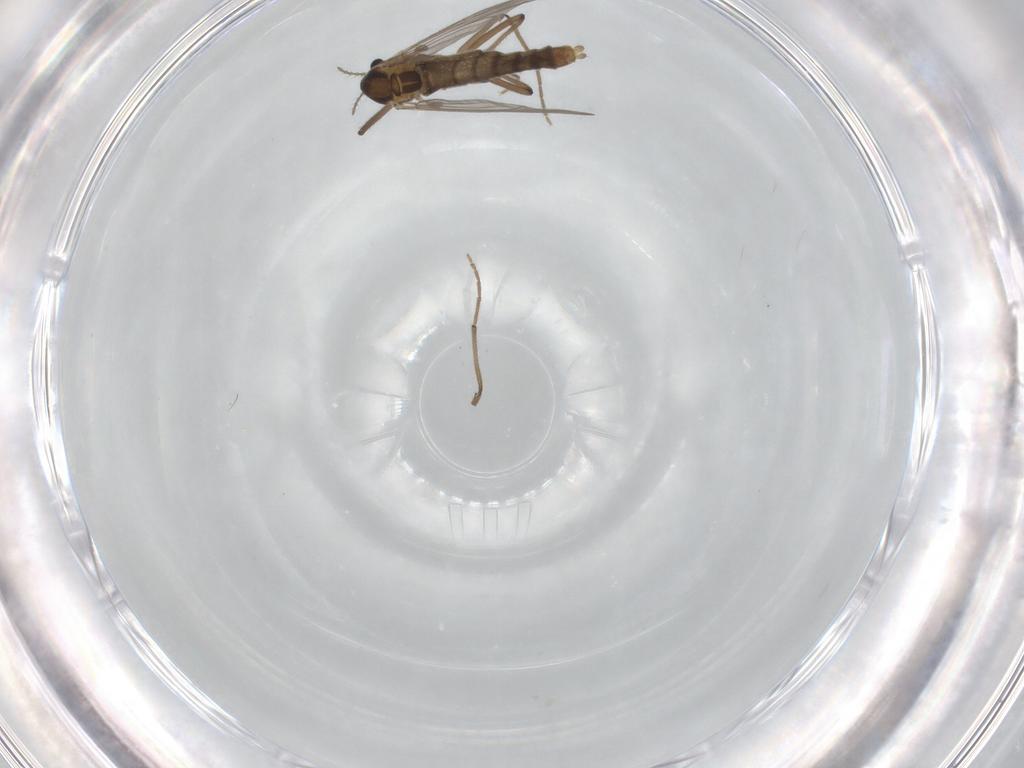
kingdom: Animalia
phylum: Arthropoda
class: Insecta
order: Diptera
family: Chironomidae
